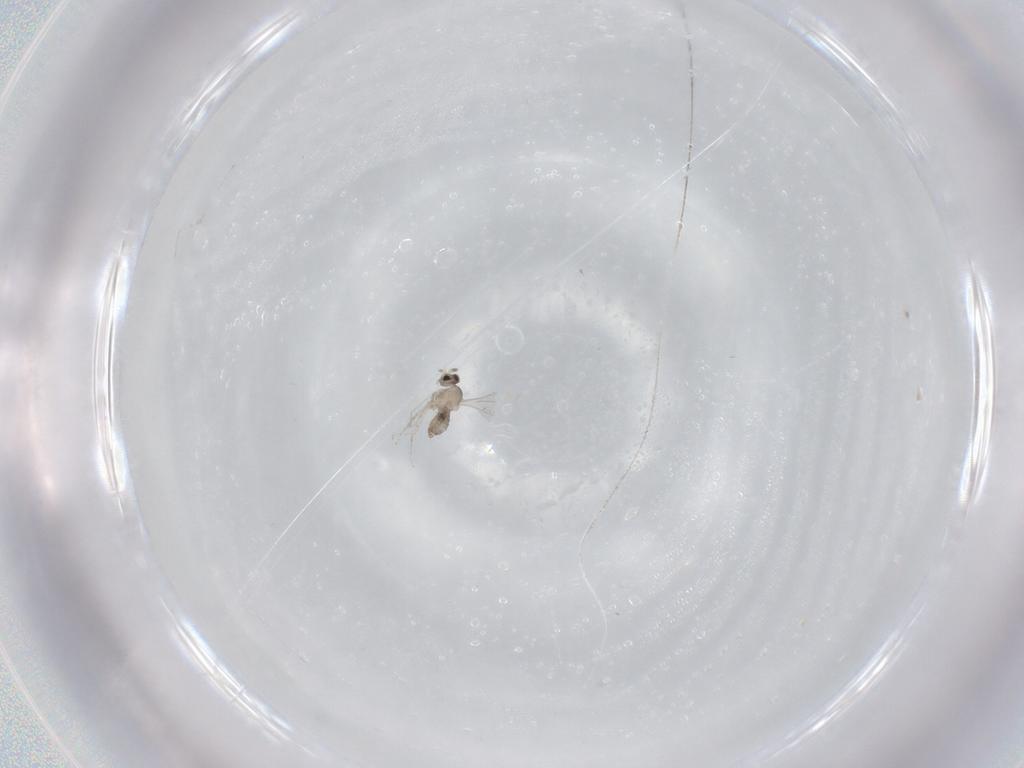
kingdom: Animalia
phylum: Arthropoda
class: Insecta
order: Diptera
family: Cecidomyiidae
